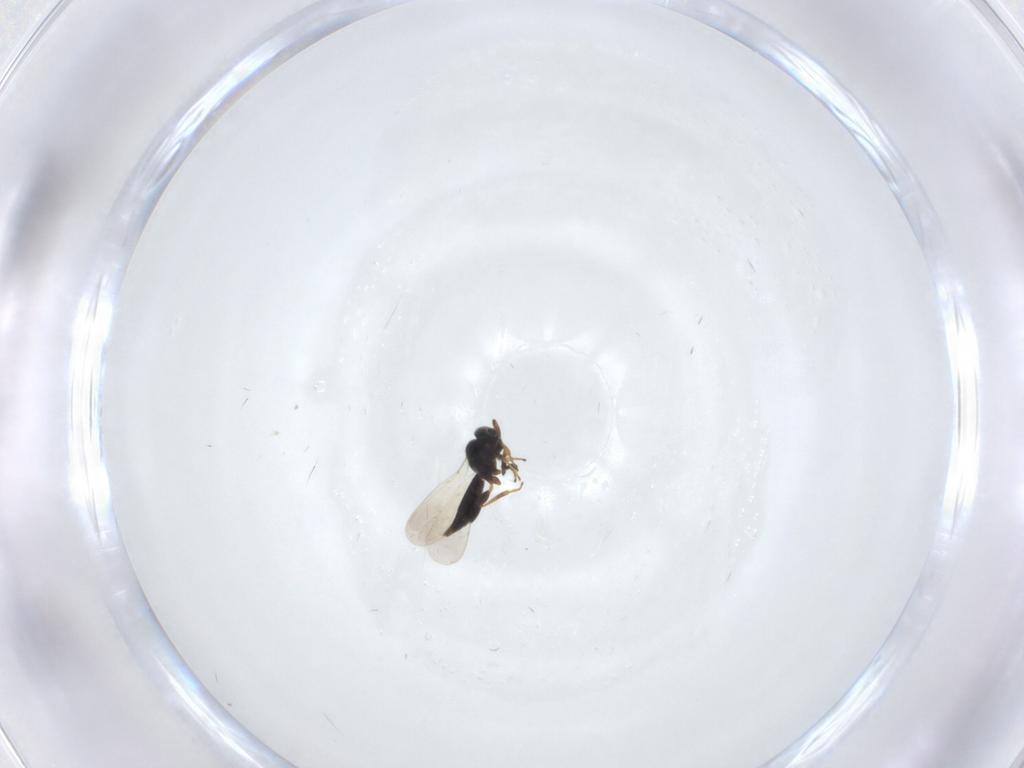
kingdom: Animalia
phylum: Arthropoda
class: Insecta
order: Hymenoptera
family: Platygastridae
